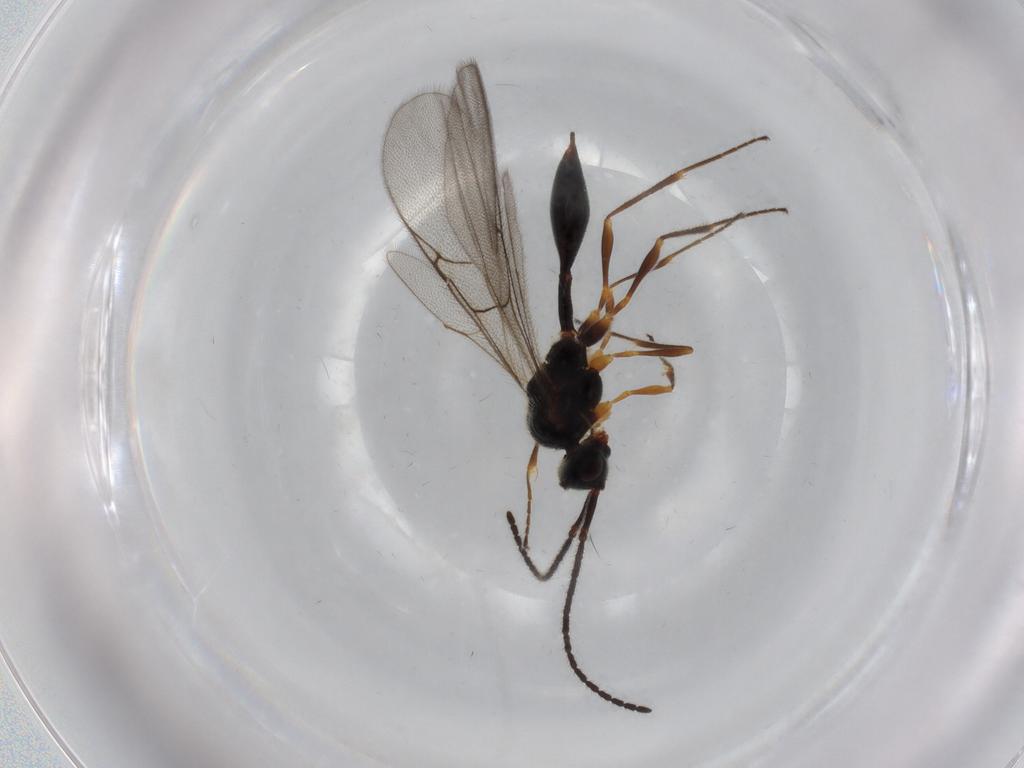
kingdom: Animalia
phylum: Arthropoda
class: Insecta
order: Hymenoptera
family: Diapriidae
